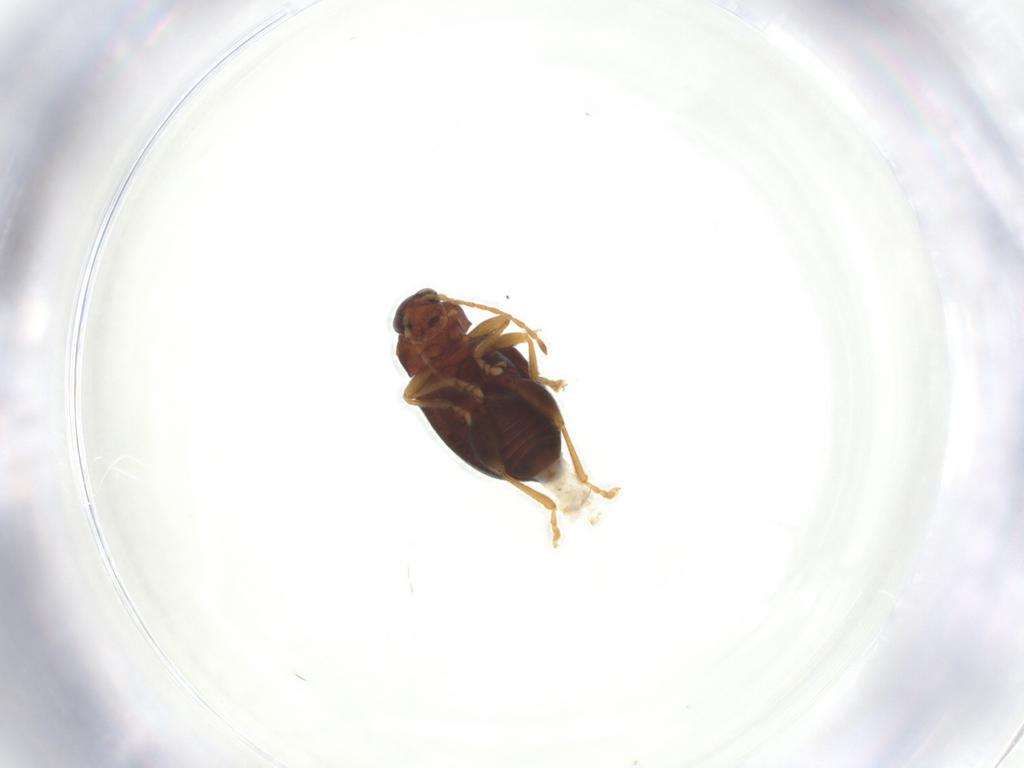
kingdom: Animalia
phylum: Arthropoda
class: Insecta
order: Coleoptera
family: Chrysomelidae
